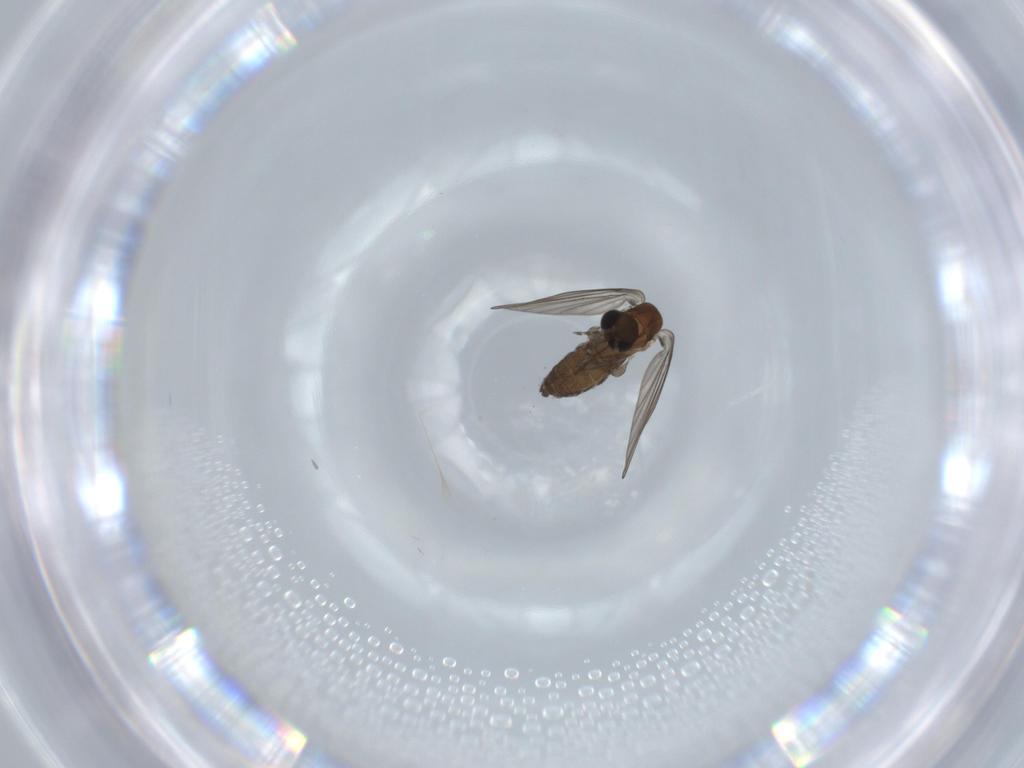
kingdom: Animalia
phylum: Arthropoda
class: Insecta
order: Diptera
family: Psychodidae
